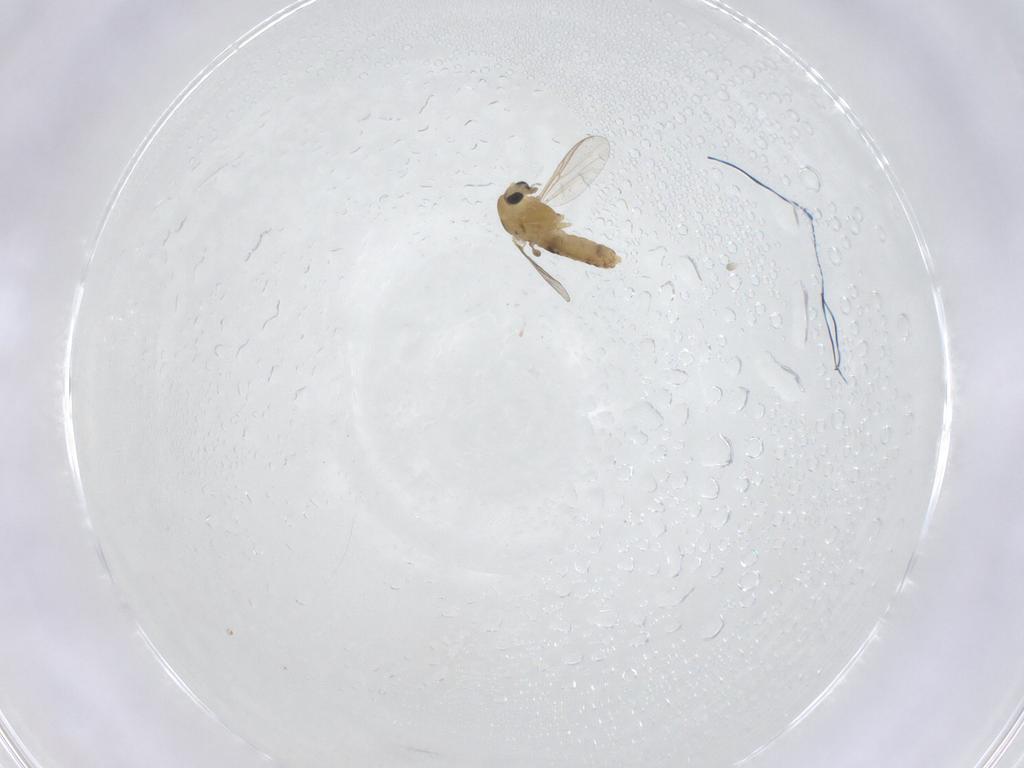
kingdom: Animalia
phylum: Arthropoda
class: Insecta
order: Diptera
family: Chironomidae
